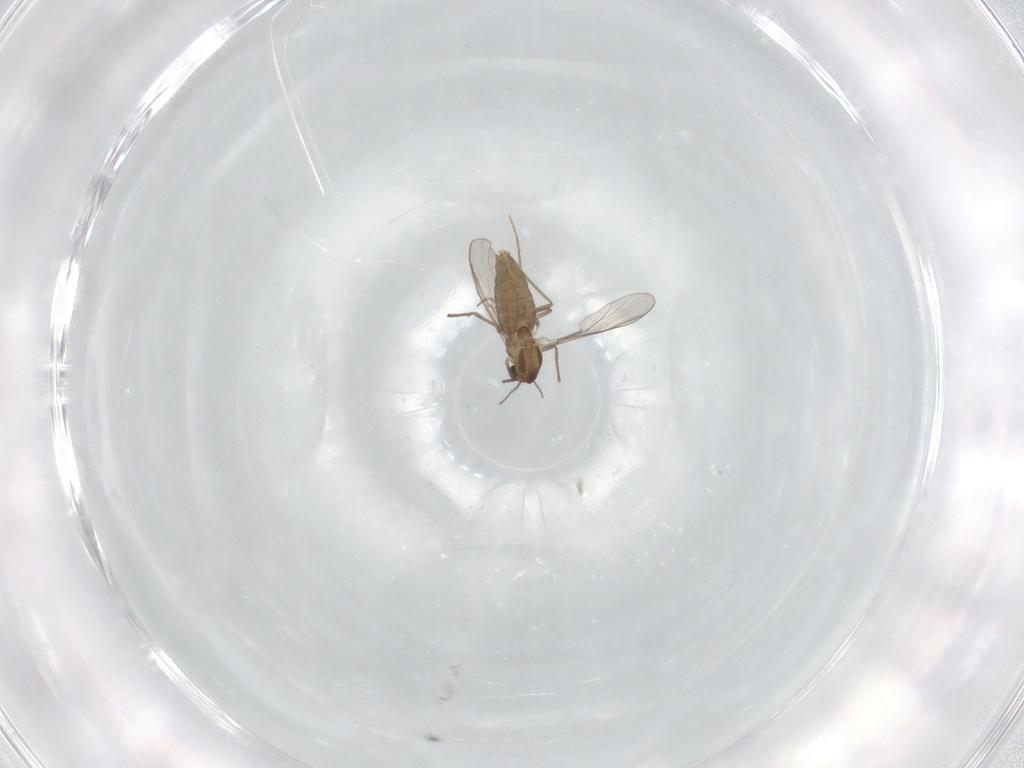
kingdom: Animalia
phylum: Arthropoda
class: Insecta
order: Diptera
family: Chironomidae
